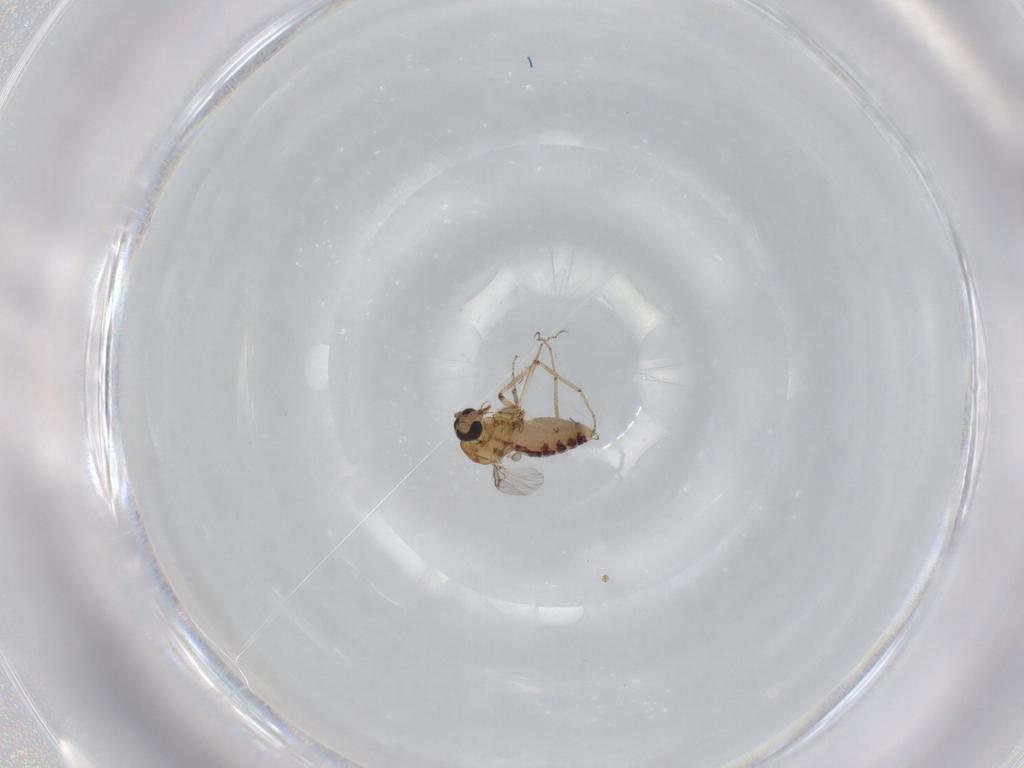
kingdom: Animalia
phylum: Arthropoda
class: Insecta
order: Diptera
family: Ceratopogonidae
